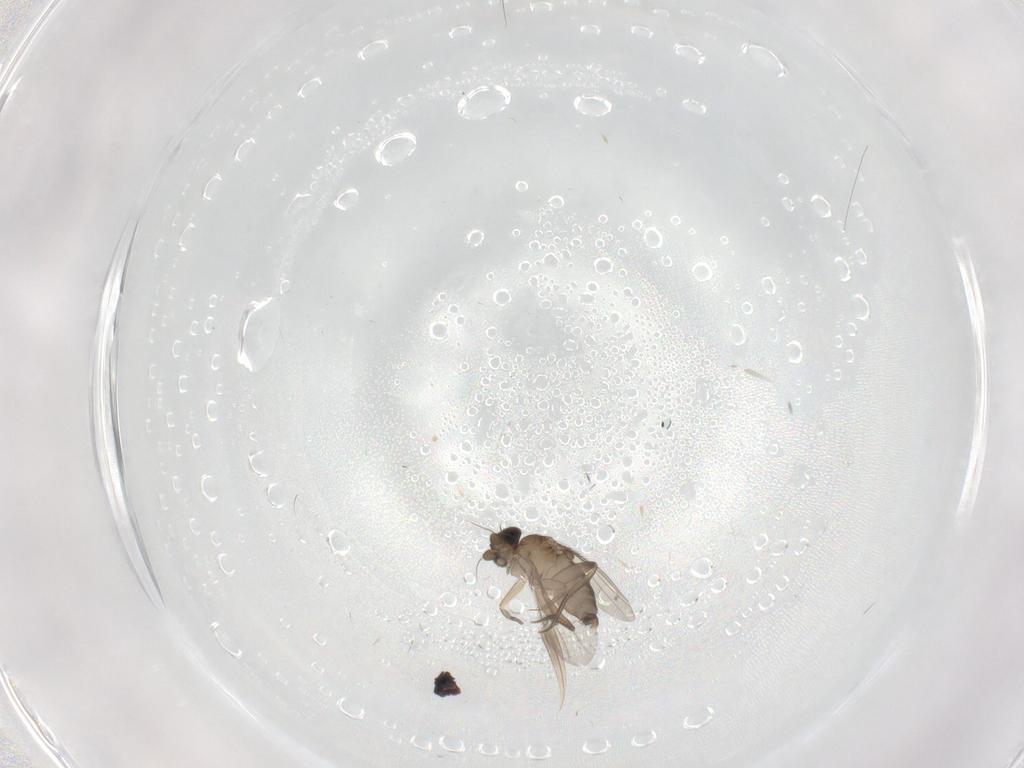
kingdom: Animalia
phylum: Arthropoda
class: Insecta
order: Diptera
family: Phoridae
